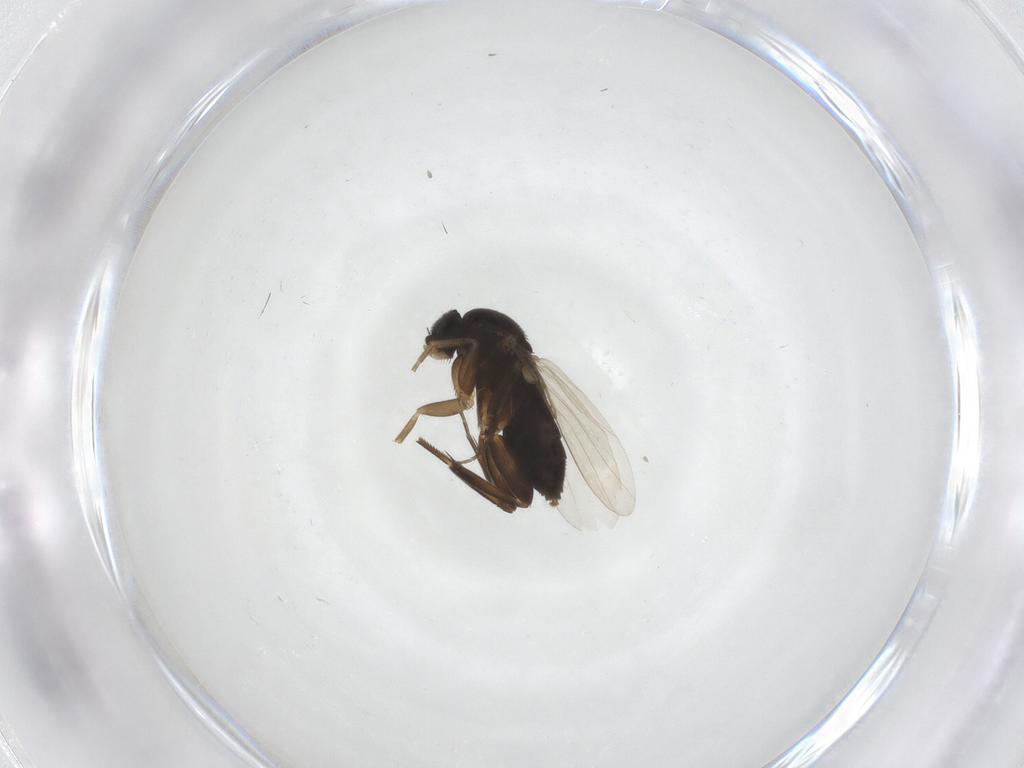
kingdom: Animalia
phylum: Arthropoda
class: Insecta
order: Diptera
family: Phoridae
